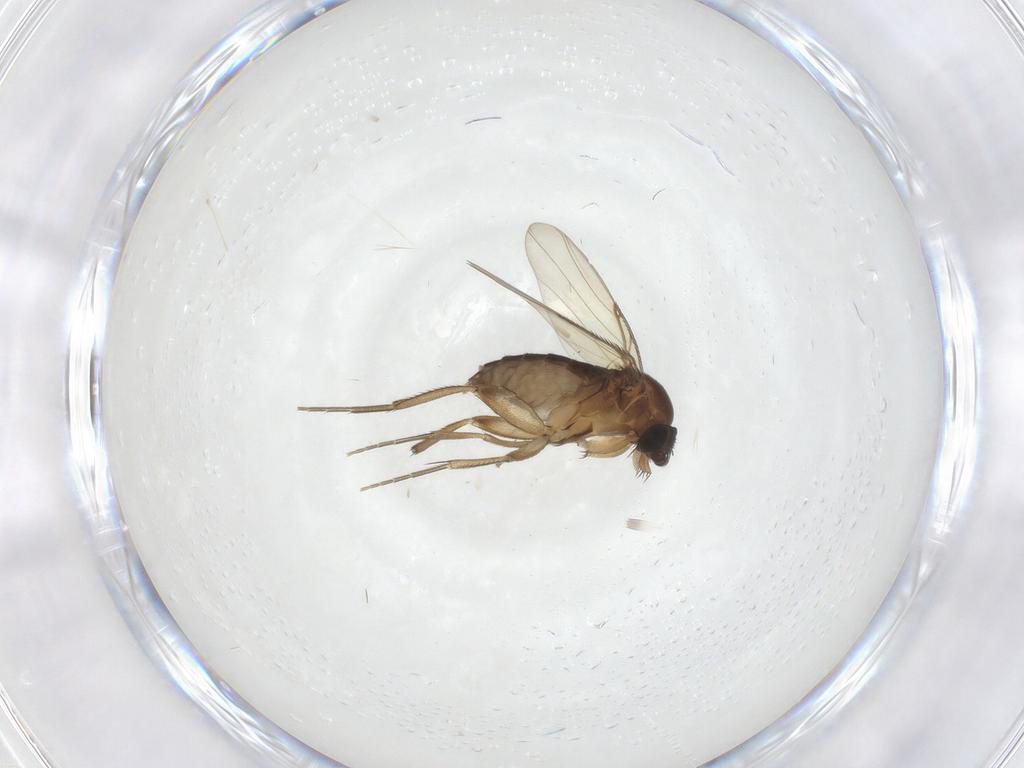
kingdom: Animalia
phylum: Arthropoda
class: Insecta
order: Diptera
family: Phoridae
